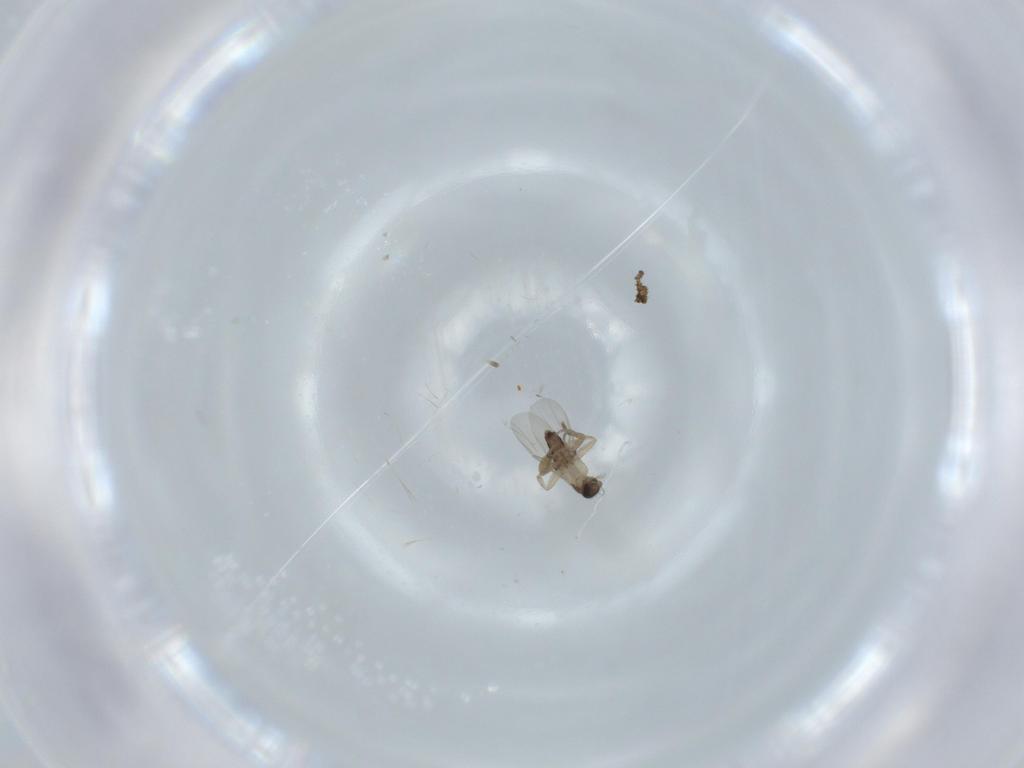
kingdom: Animalia
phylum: Arthropoda
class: Insecta
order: Diptera
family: Phoridae
